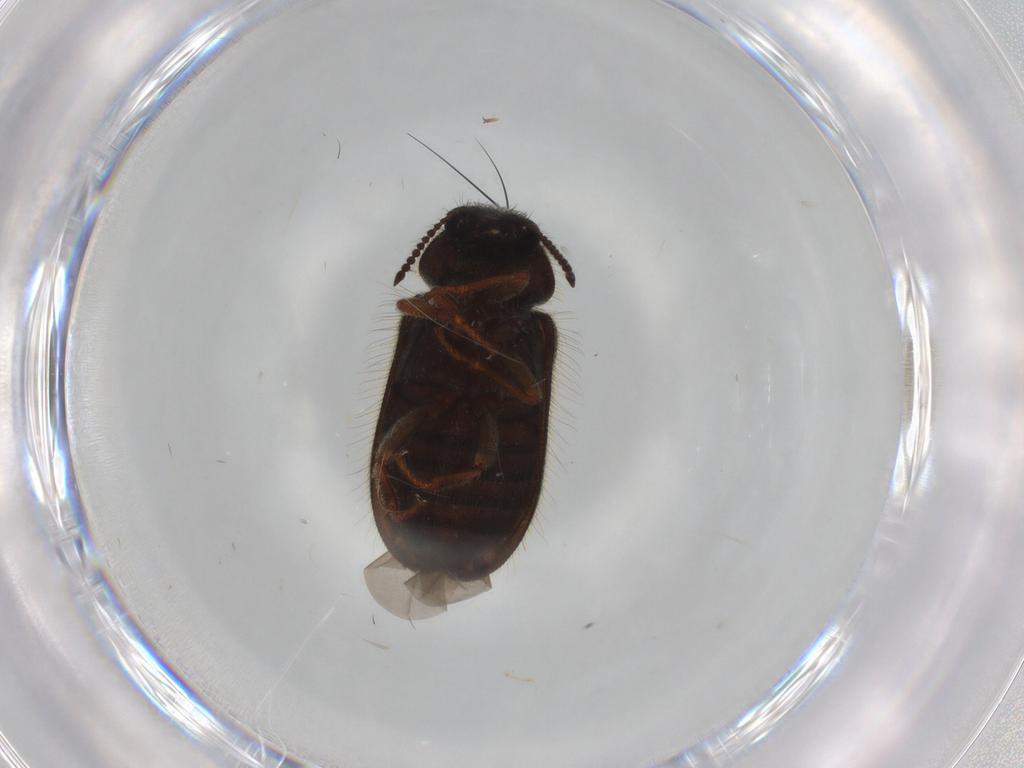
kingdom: Animalia
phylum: Arthropoda
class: Insecta
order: Coleoptera
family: Melyridae
